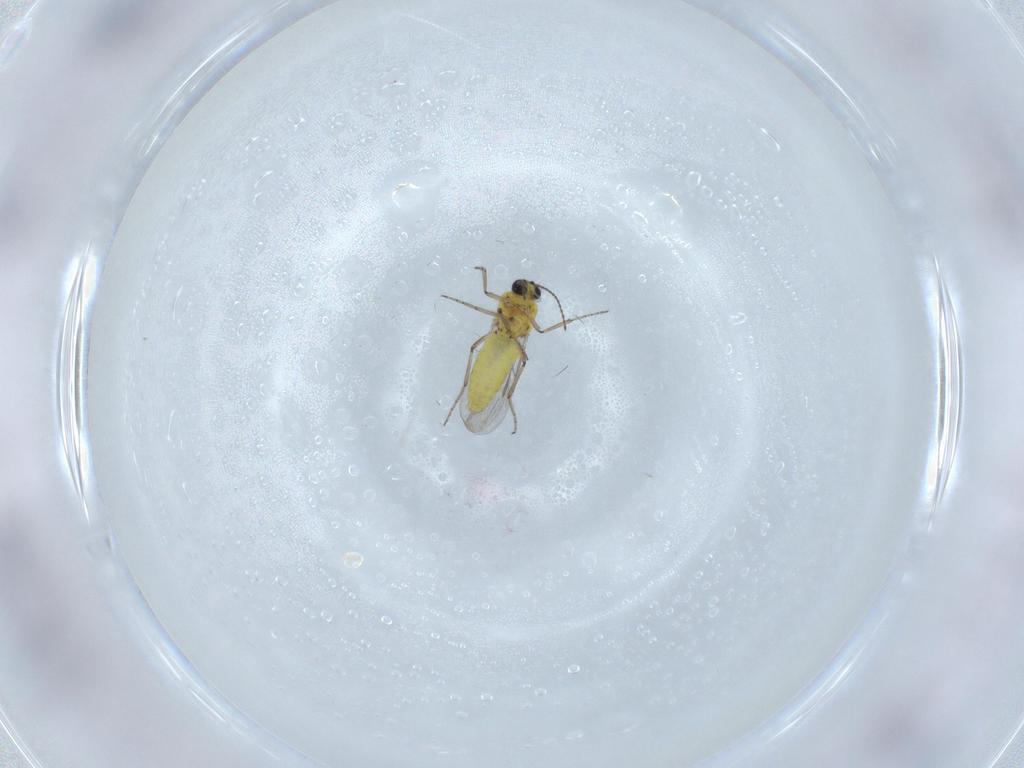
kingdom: Animalia
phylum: Arthropoda
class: Insecta
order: Diptera
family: Ceratopogonidae
